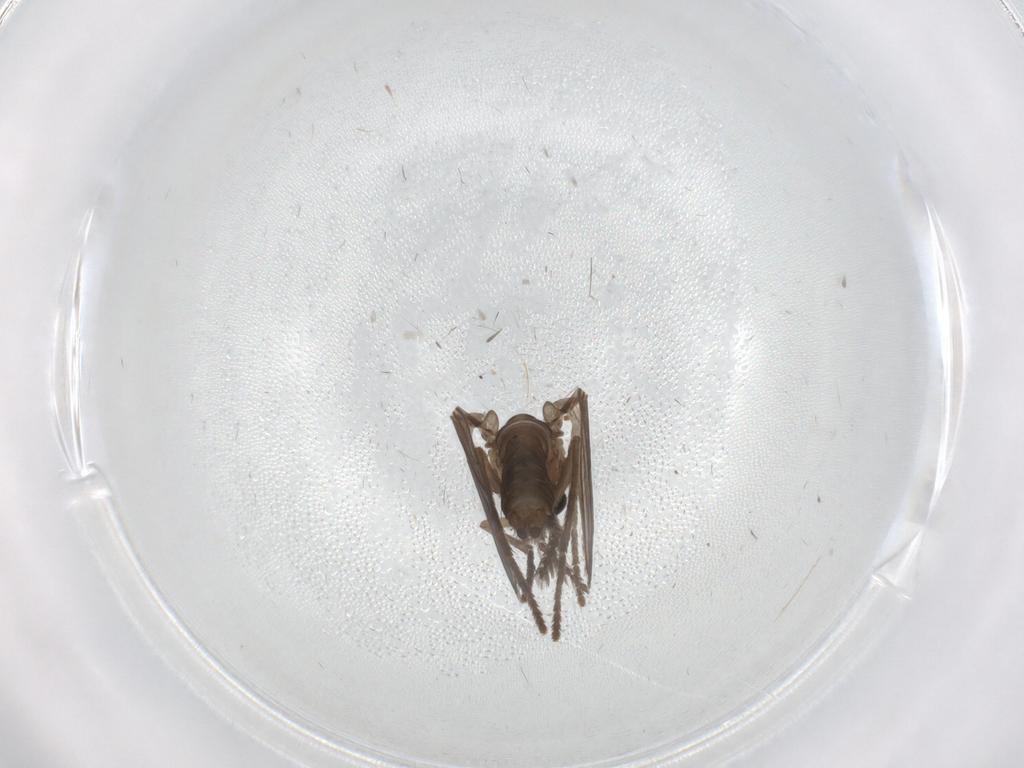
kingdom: Animalia
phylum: Arthropoda
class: Insecta
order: Diptera
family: Psychodidae
